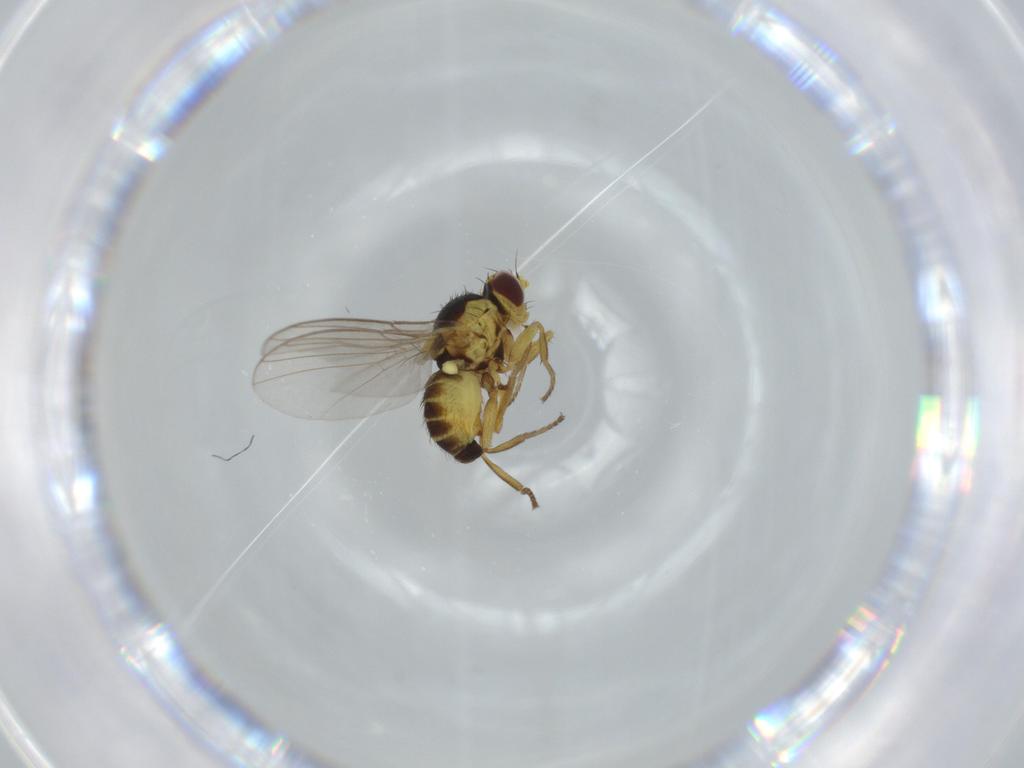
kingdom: Animalia
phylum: Arthropoda
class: Insecta
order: Diptera
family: Agromyzidae
